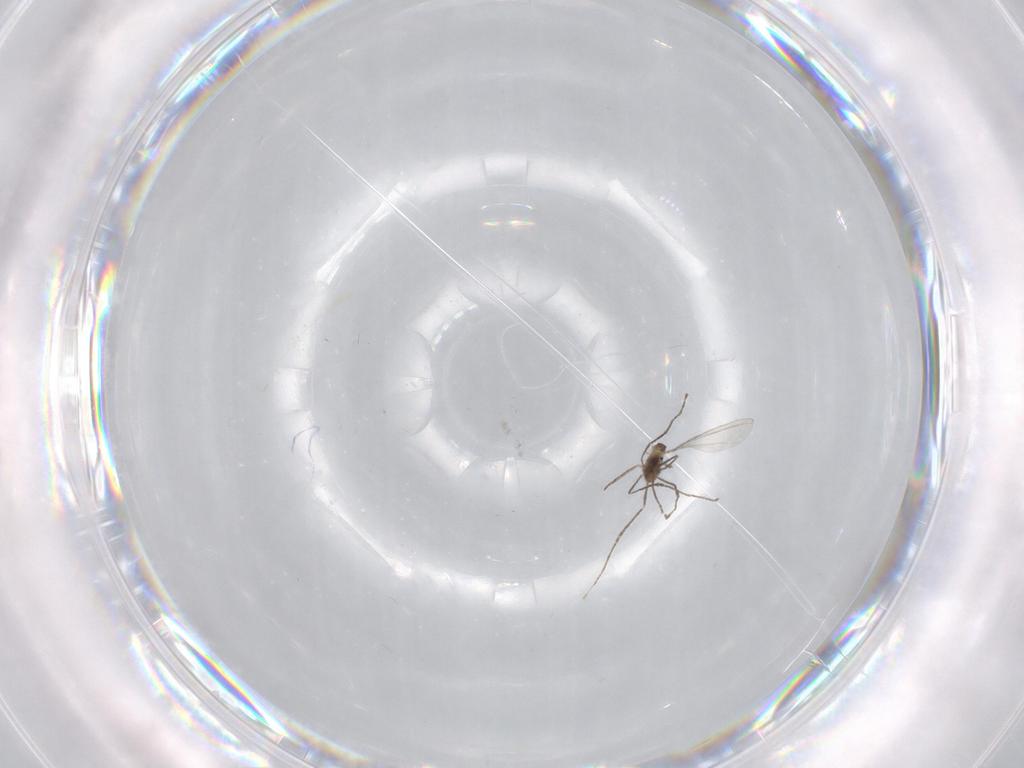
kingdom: Animalia
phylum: Arthropoda
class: Insecta
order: Diptera
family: Cecidomyiidae
